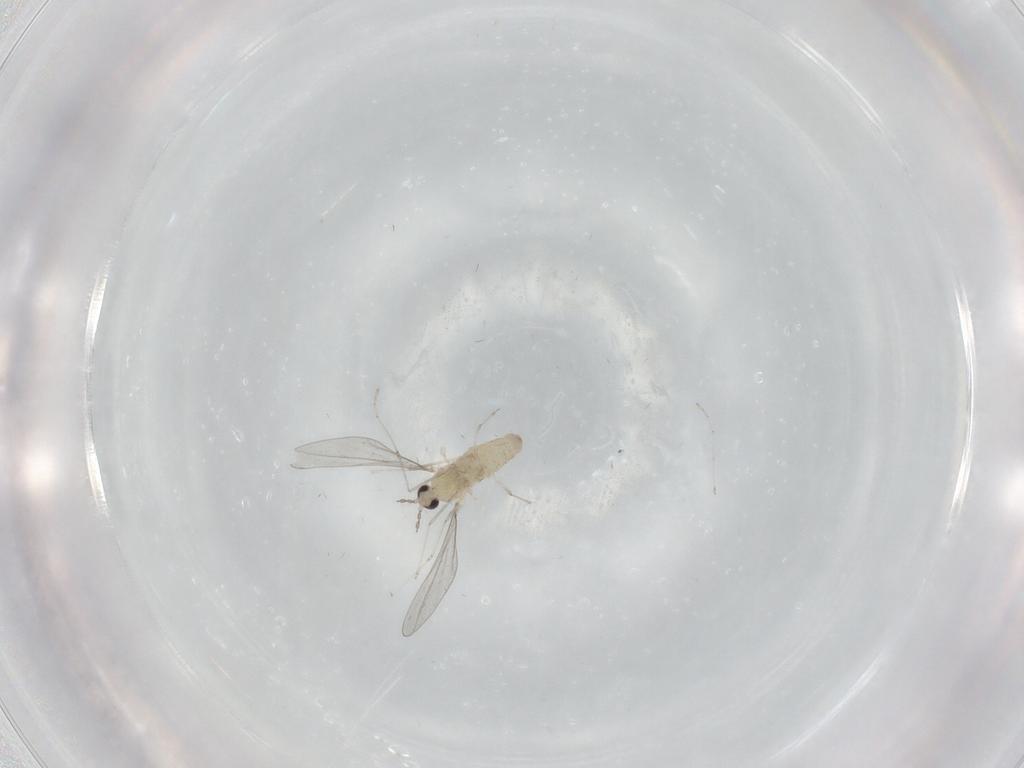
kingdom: Animalia
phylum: Arthropoda
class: Insecta
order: Diptera
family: Cecidomyiidae
